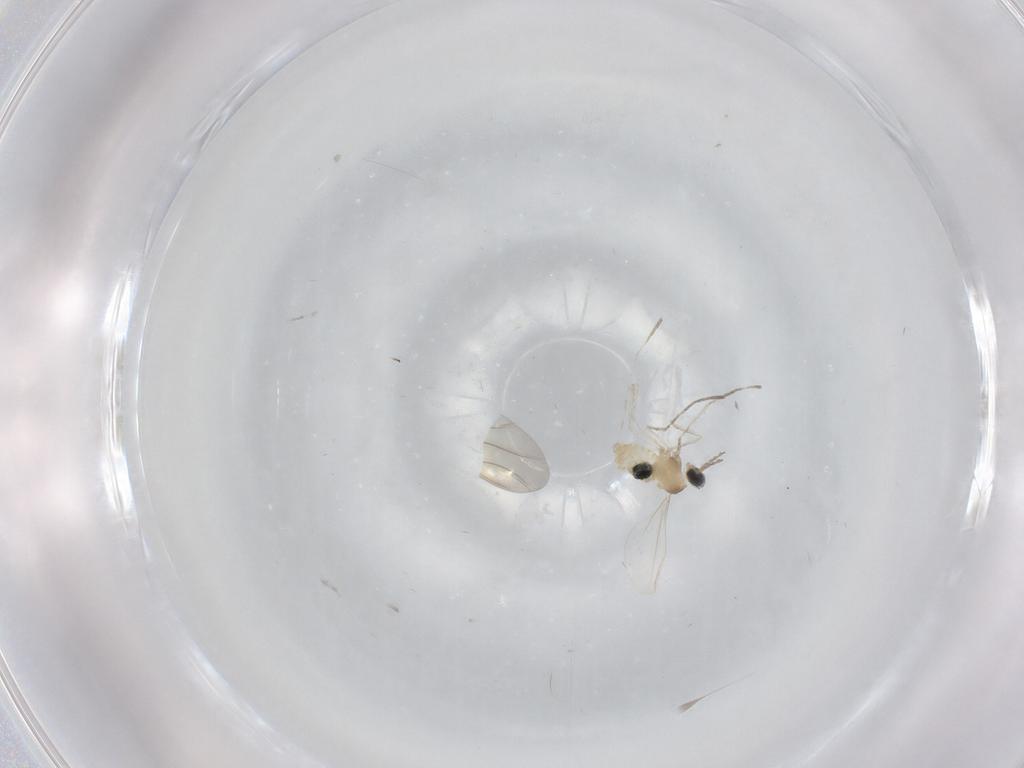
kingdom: Animalia
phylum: Arthropoda
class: Insecta
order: Diptera
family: Cecidomyiidae
